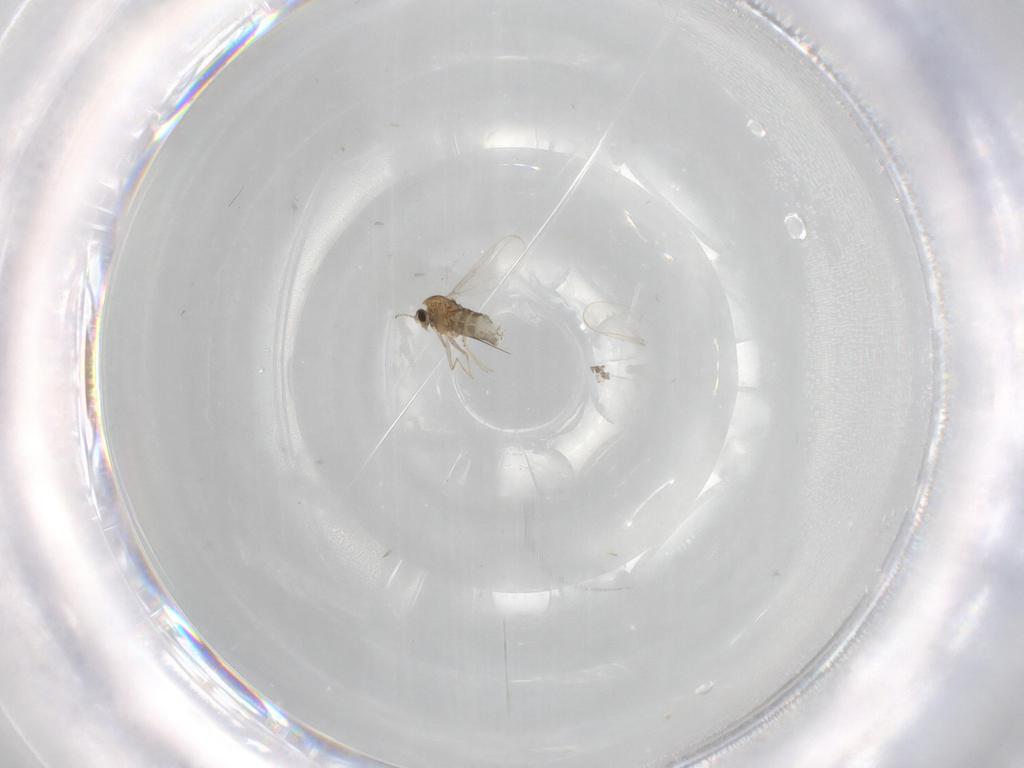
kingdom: Animalia
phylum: Arthropoda
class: Insecta
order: Diptera
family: Chironomidae
